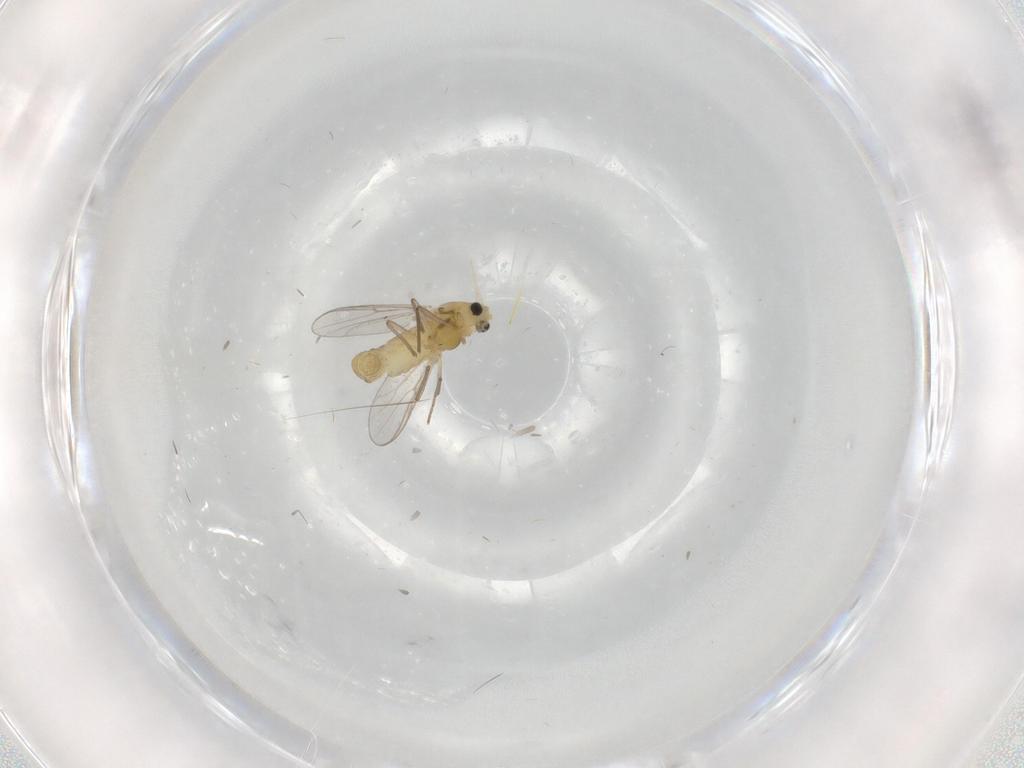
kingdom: Animalia
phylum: Arthropoda
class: Insecta
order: Diptera
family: Chironomidae
